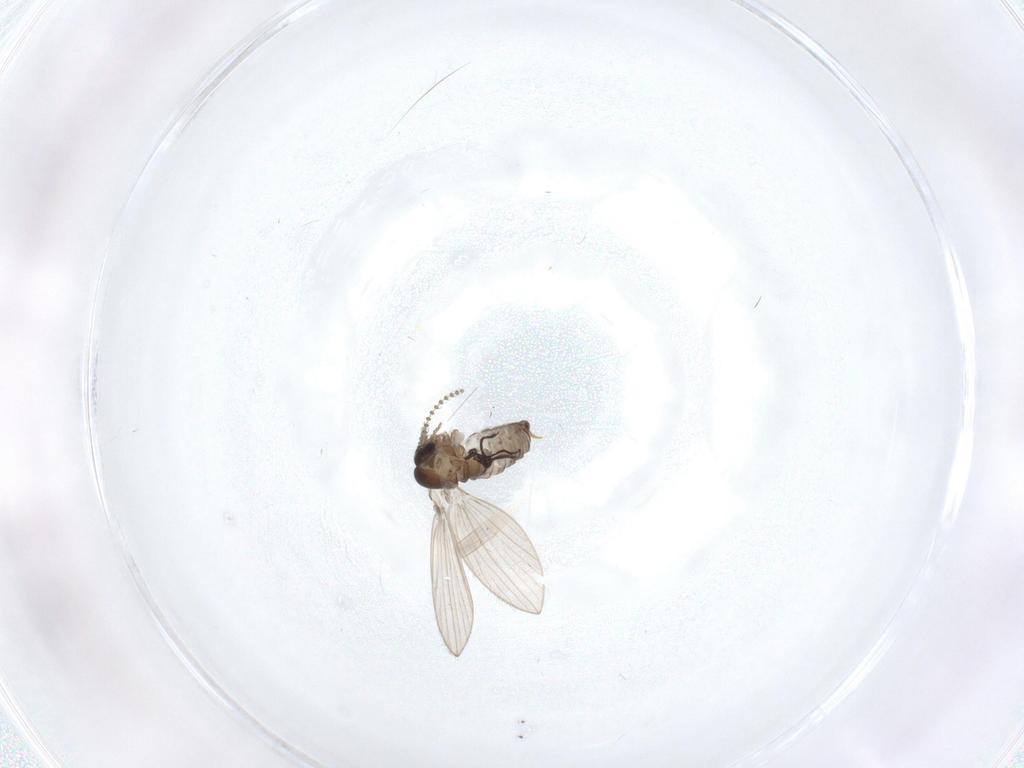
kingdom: Animalia
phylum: Arthropoda
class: Insecta
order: Diptera
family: Psychodidae
